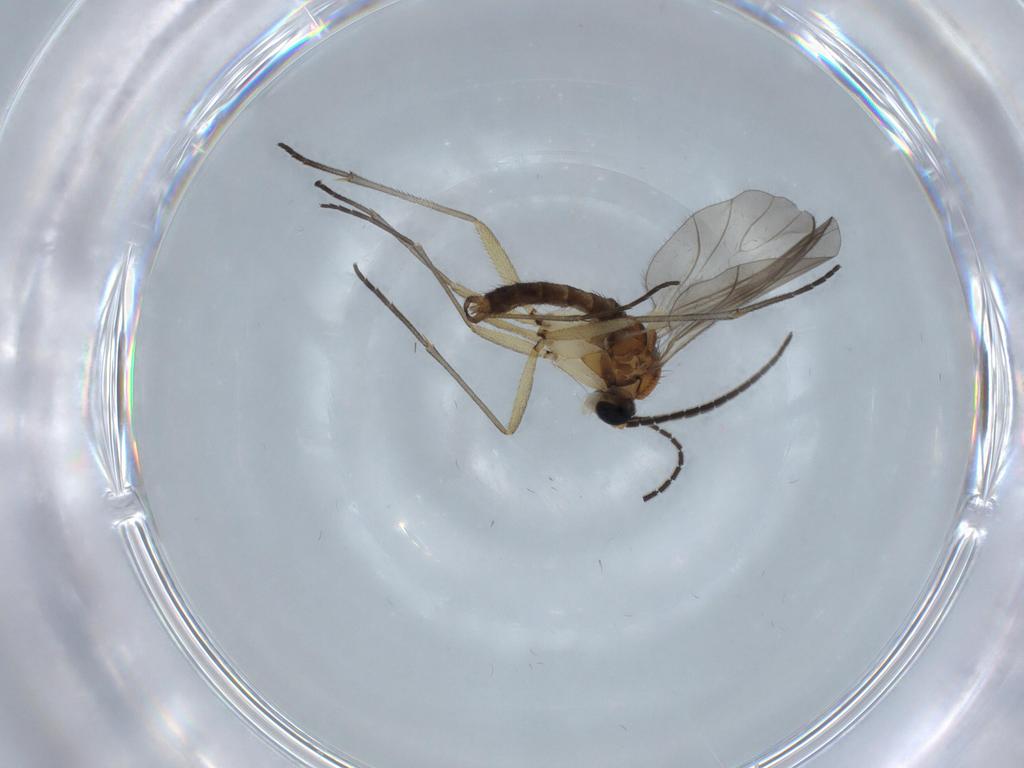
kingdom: Animalia
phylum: Arthropoda
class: Insecta
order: Diptera
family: Sciaridae
